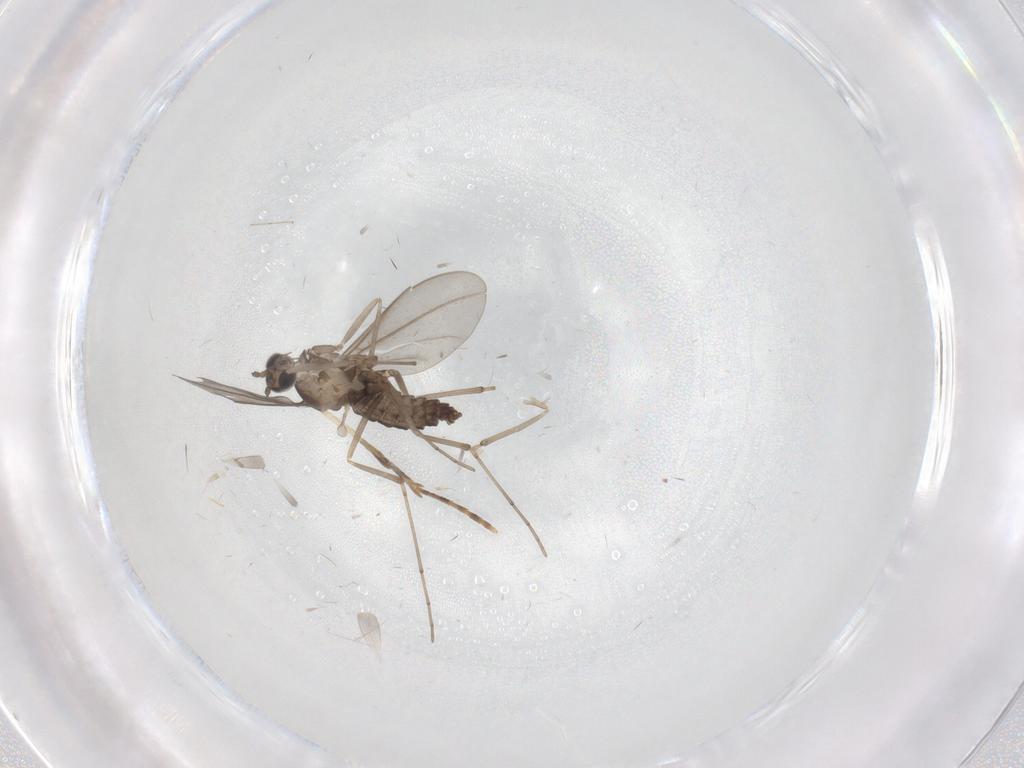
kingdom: Animalia
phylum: Arthropoda
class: Insecta
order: Diptera
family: Cecidomyiidae
